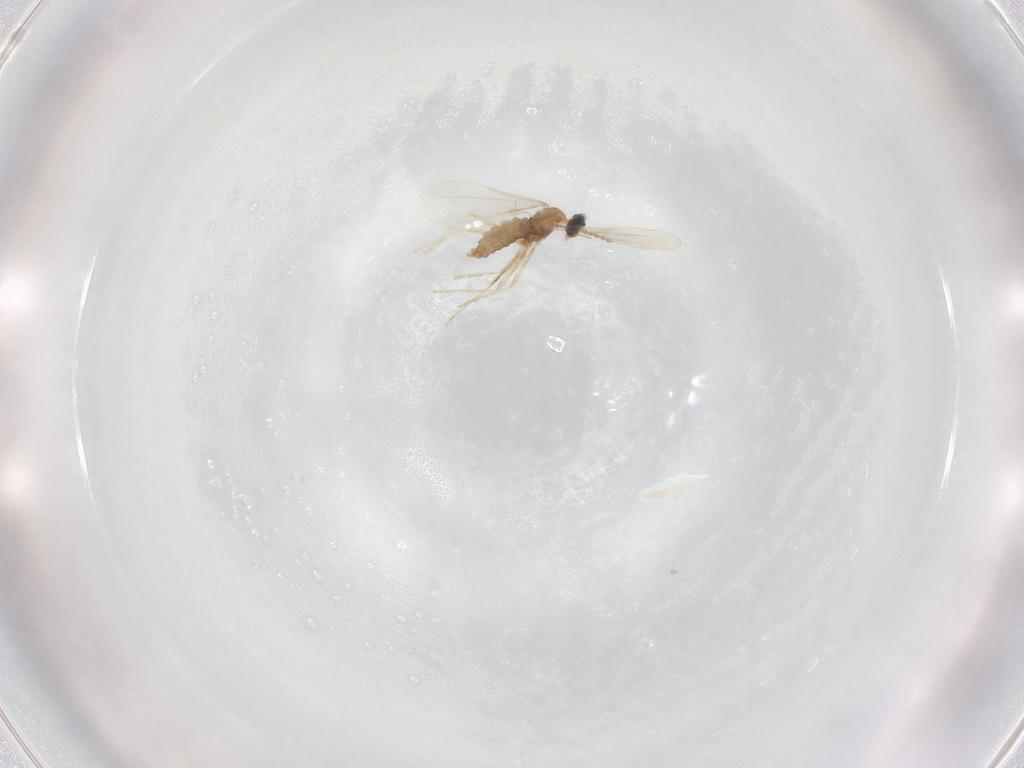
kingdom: Animalia
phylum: Arthropoda
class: Insecta
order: Diptera
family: Cecidomyiidae
